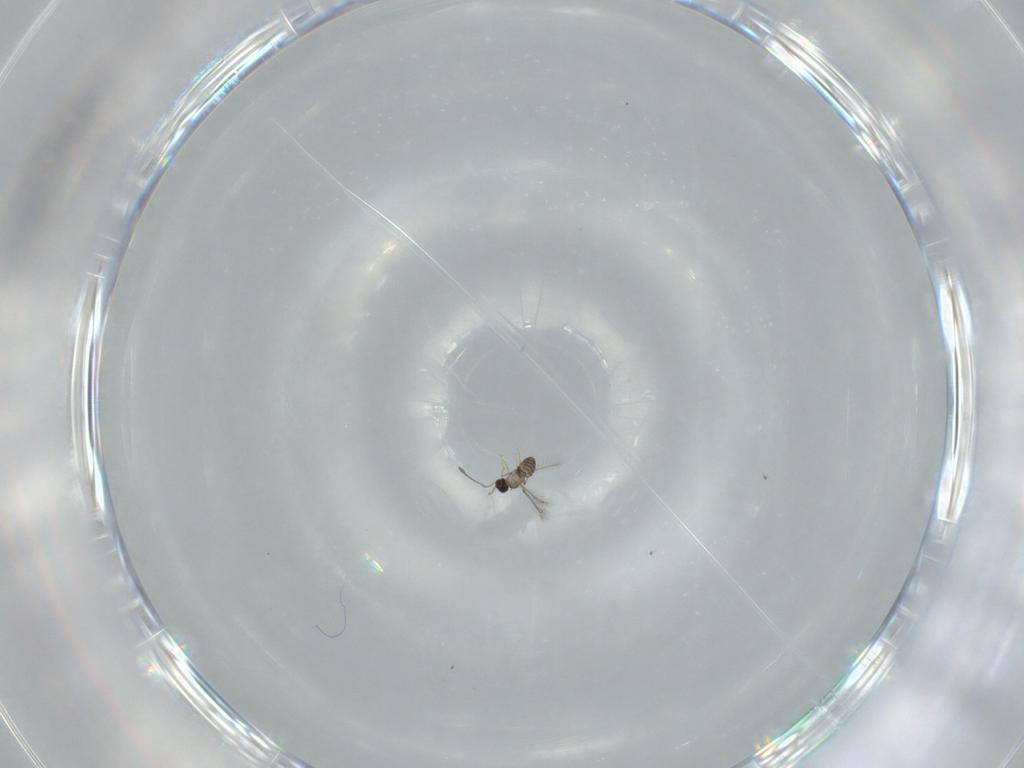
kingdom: Animalia
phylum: Arthropoda
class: Insecta
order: Hymenoptera
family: Mymaridae
